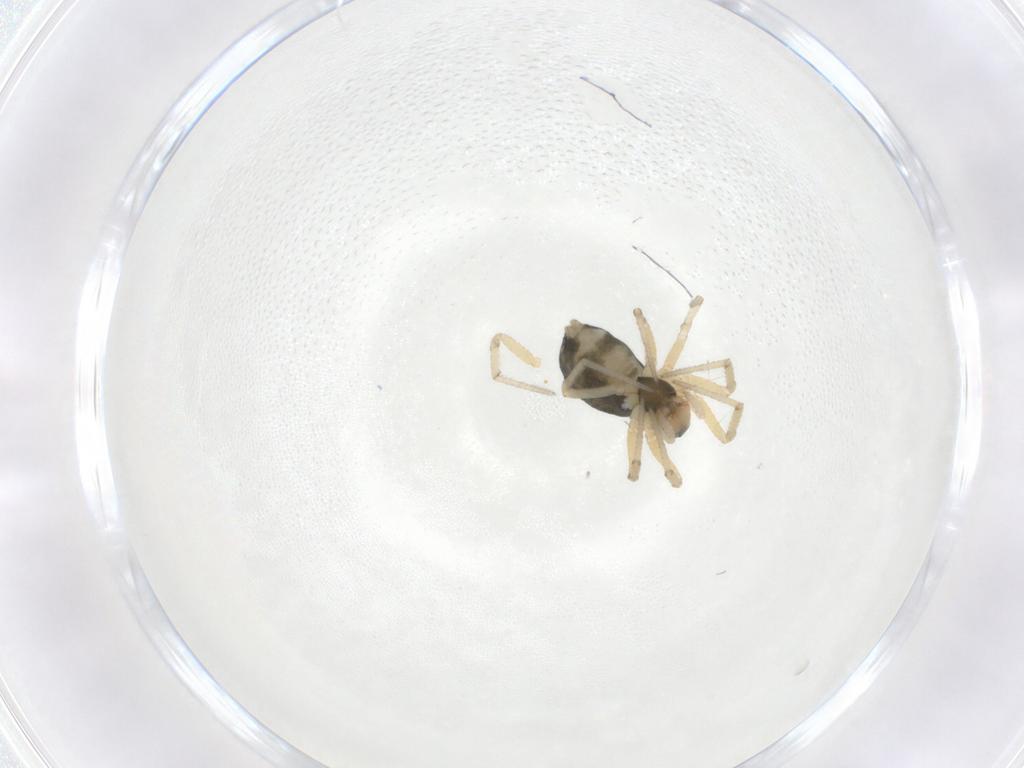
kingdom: Animalia
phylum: Arthropoda
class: Arachnida
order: Araneae
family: Linyphiidae
